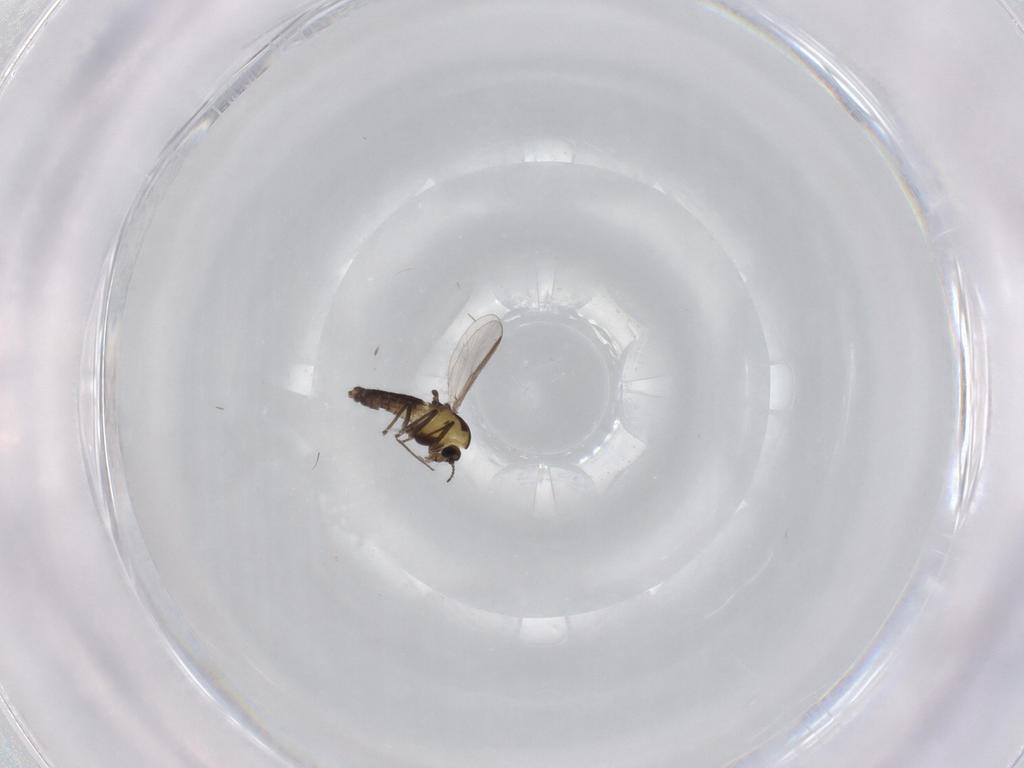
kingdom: Animalia
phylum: Arthropoda
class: Insecta
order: Diptera
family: Chironomidae
